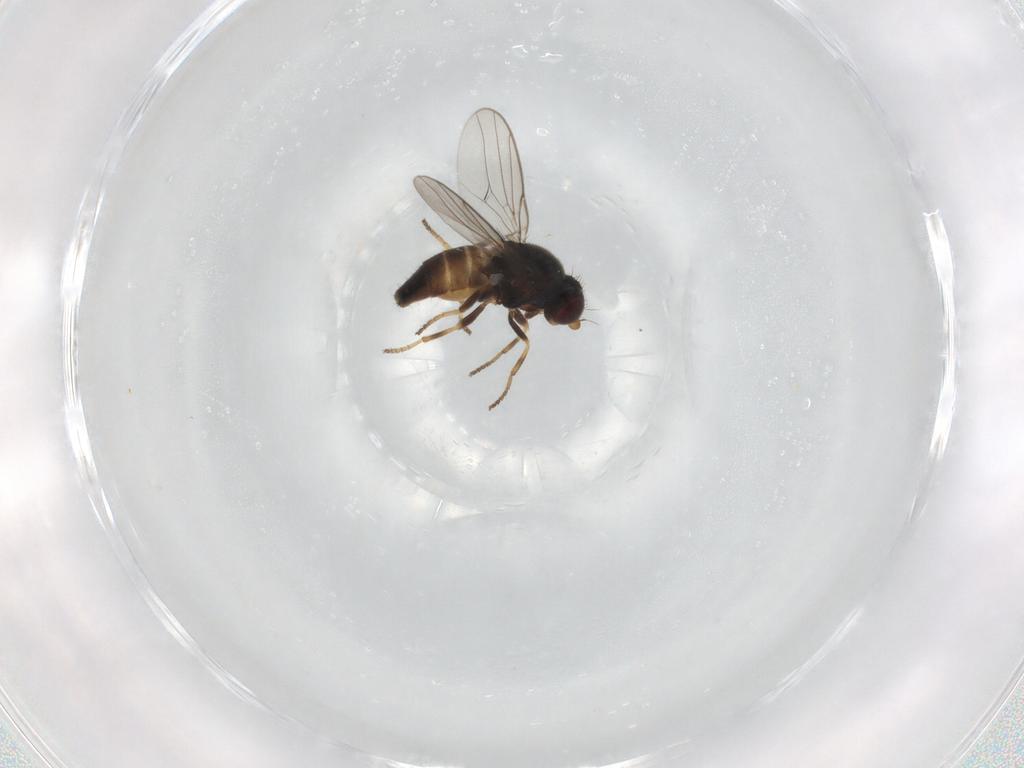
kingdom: Animalia
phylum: Arthropoda
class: Insecta
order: Diptera
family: Chloropidae
